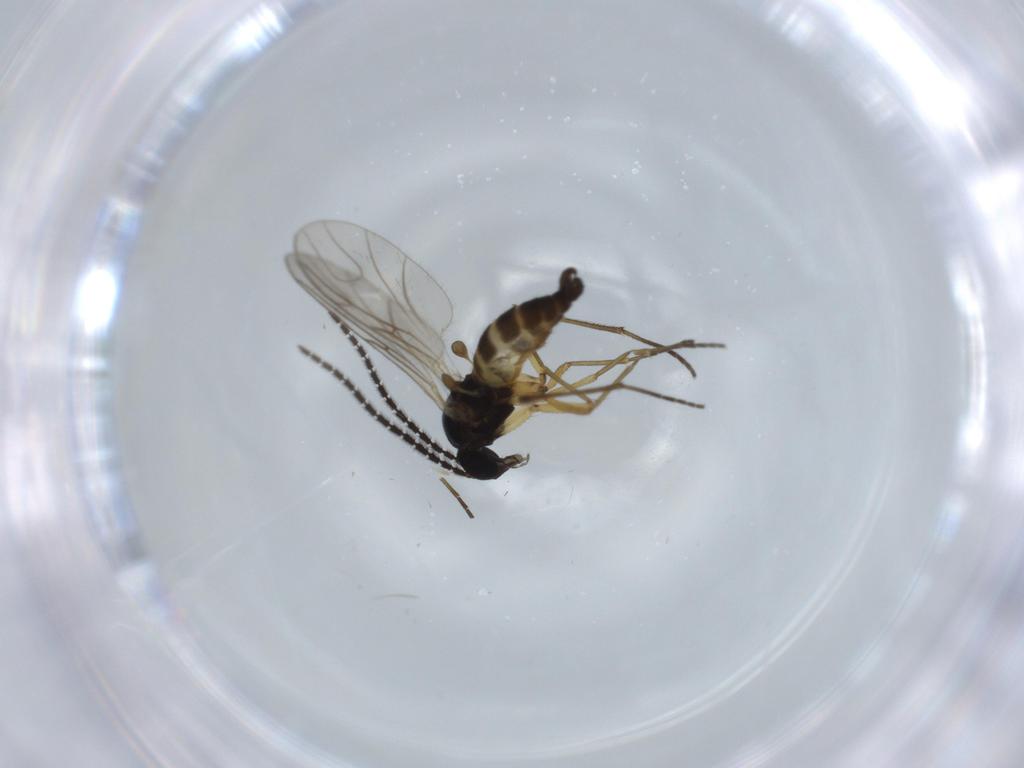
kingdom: Animalia
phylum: Arthropoda
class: Insecta
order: Diptera
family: Sciaridae
